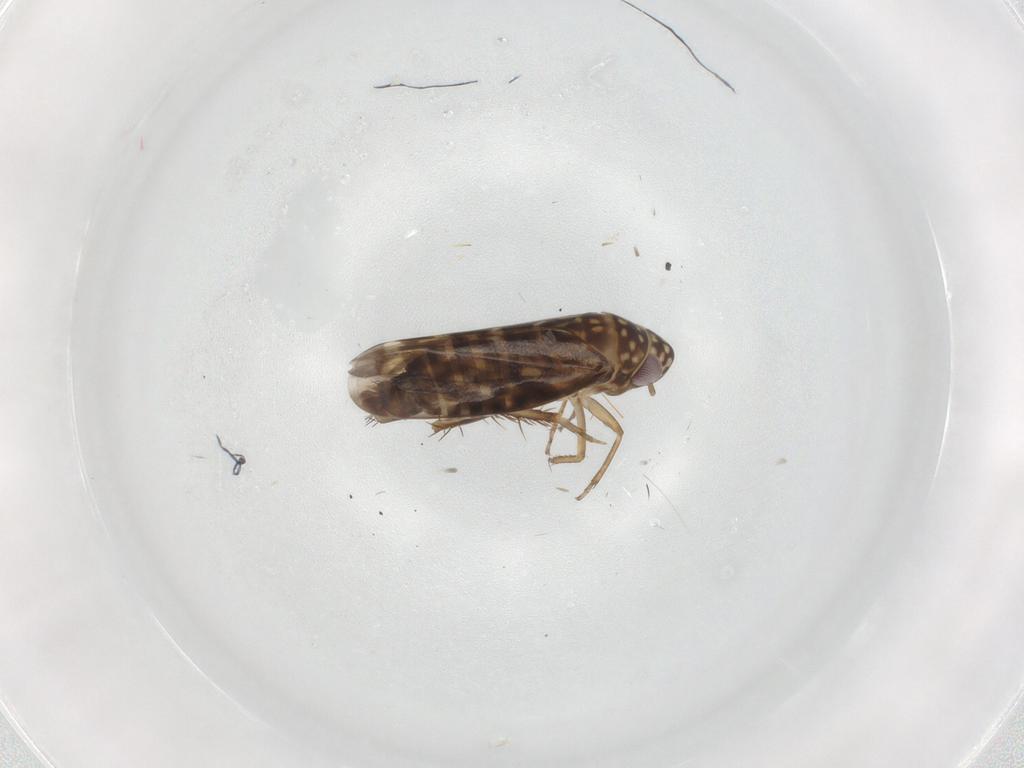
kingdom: Animalia
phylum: Arthropoda
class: Insecta
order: Hemiptera
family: Cicadellidae
